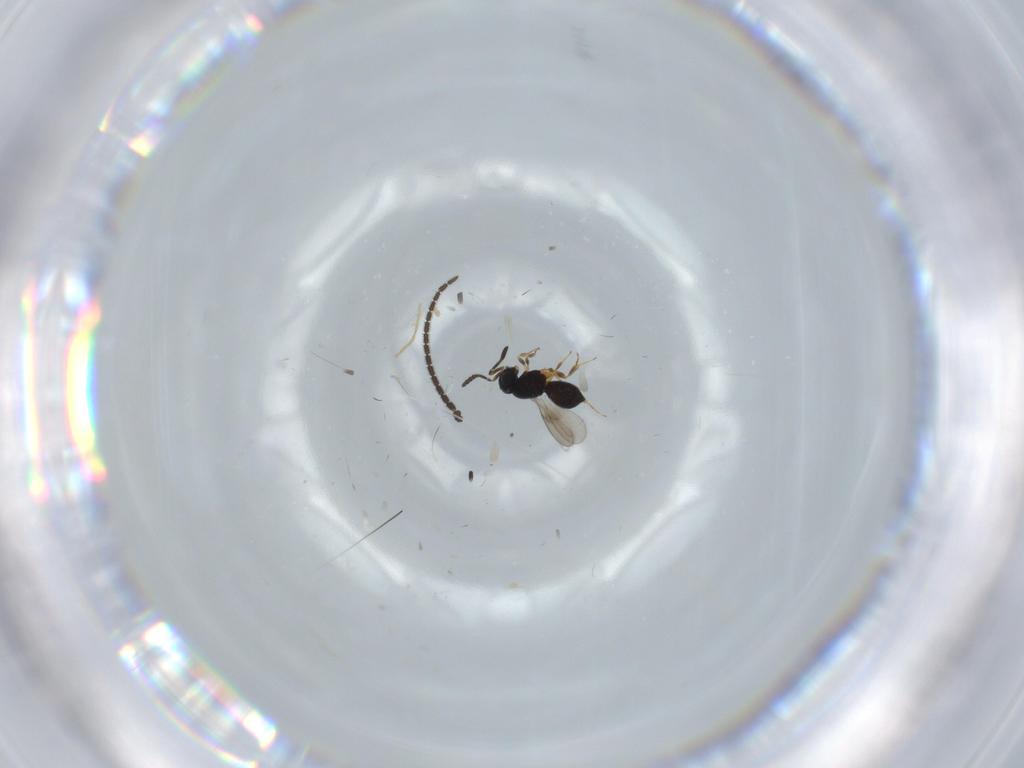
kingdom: Animalia
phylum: Arthropoda
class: Insecta
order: Hymenoptera
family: Scelionidae
